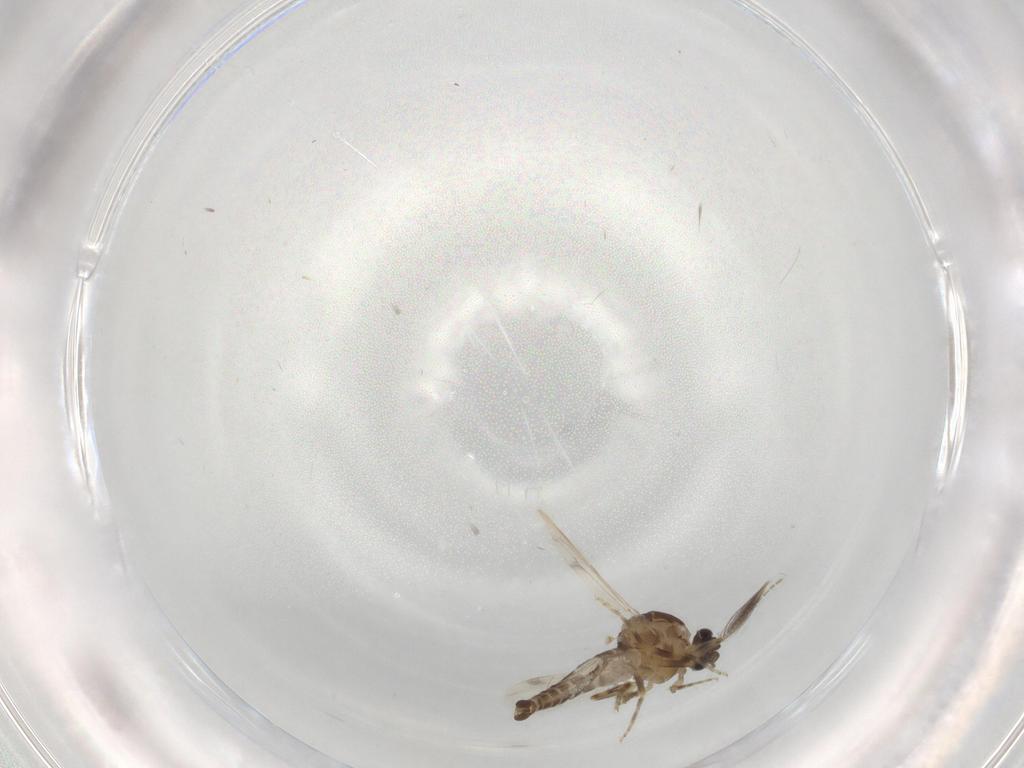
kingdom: Animalia
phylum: Arthropoda
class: Insecta
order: Diptera
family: Ceratopogonidae
